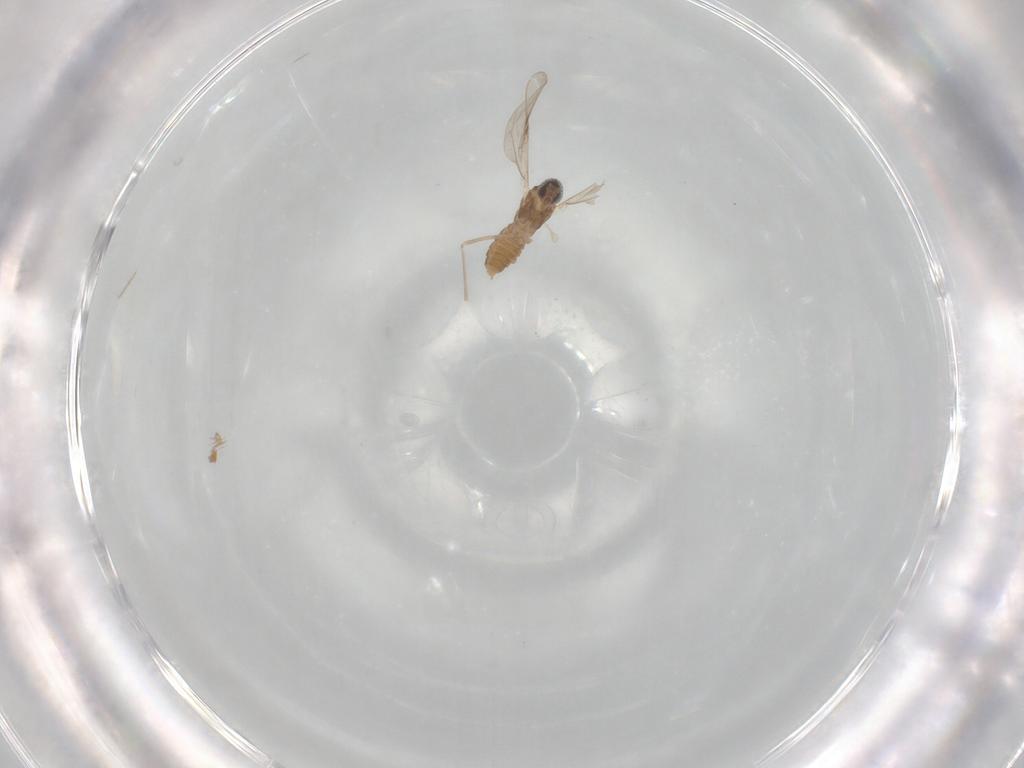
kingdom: Animalia
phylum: Arthropoda
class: Insecta
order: Diptera
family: Cecidomyiidae
